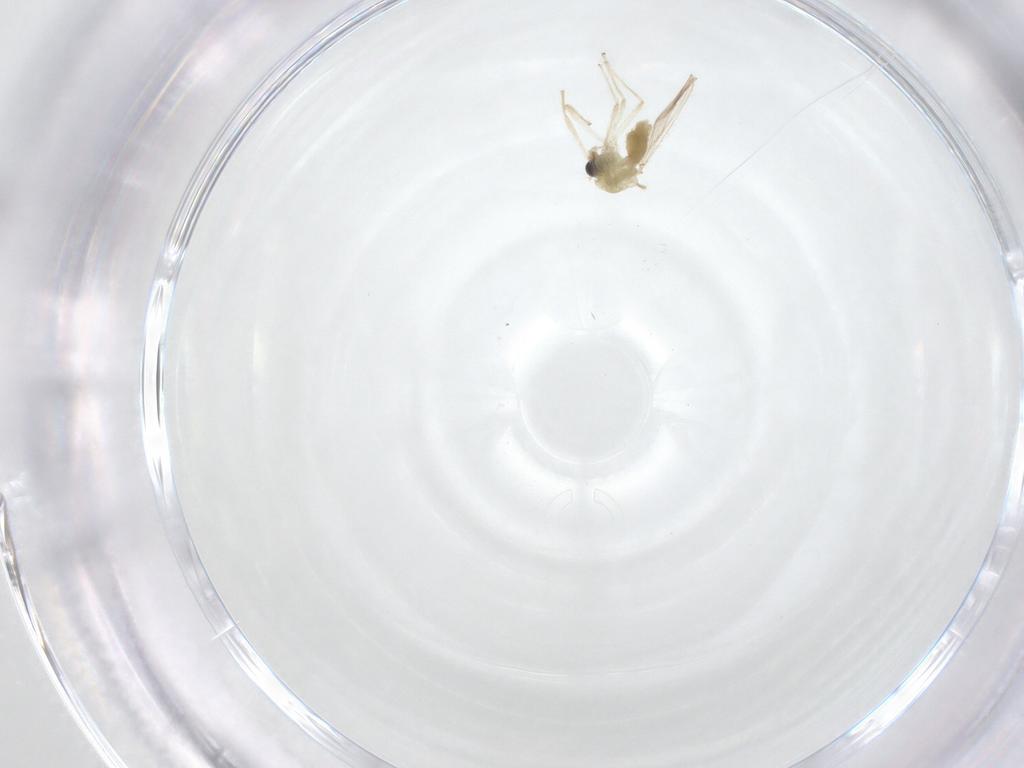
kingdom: Animalia
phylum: Arthropoda
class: Insecta
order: Diptera
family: Chironomidae
